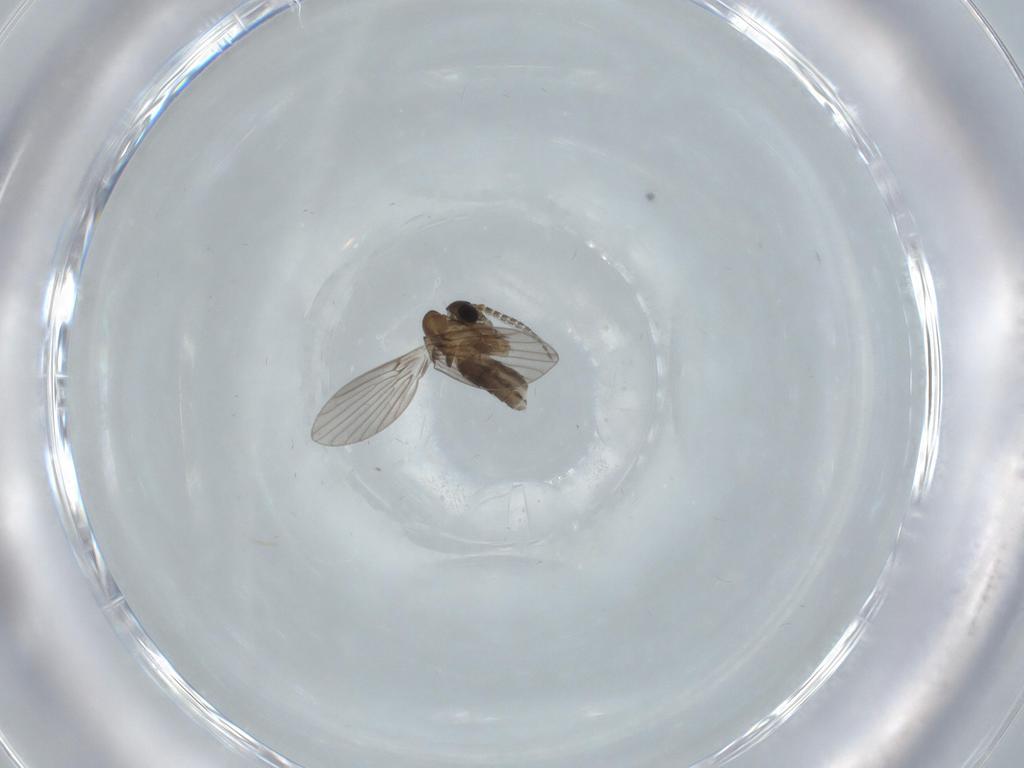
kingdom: Animalia
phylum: Arthropoda
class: Insecta
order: Diptera
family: Psychodidae
